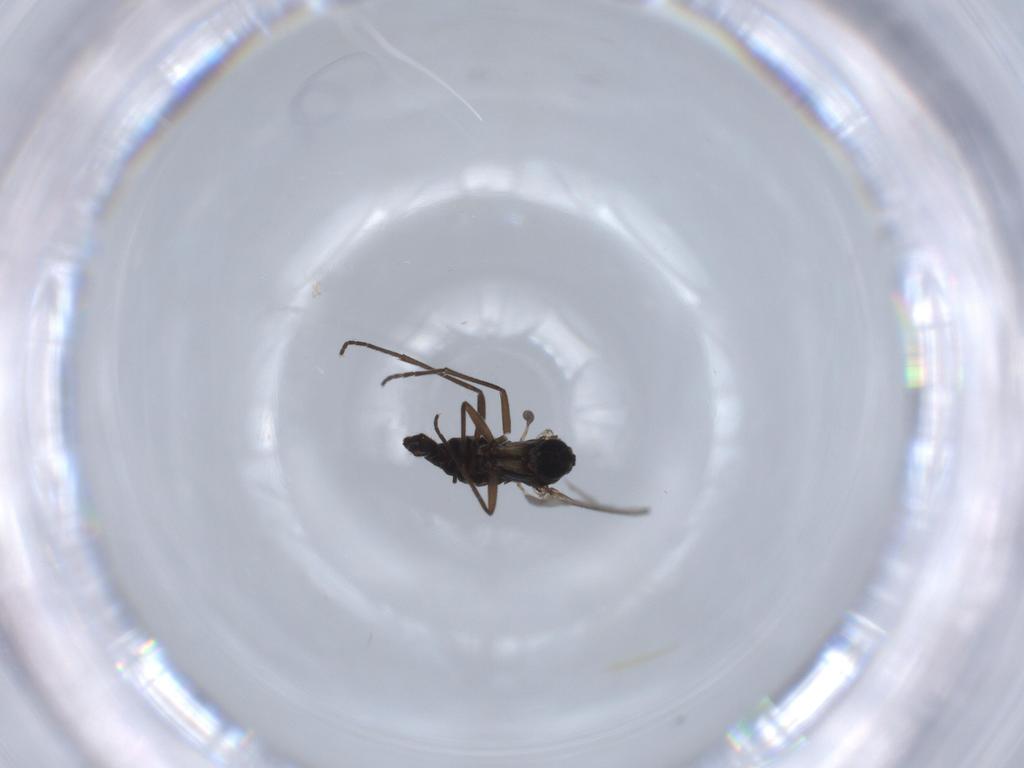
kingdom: Animalia
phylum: Arthropoda
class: Insecta
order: Diptera
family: Sciaridae
